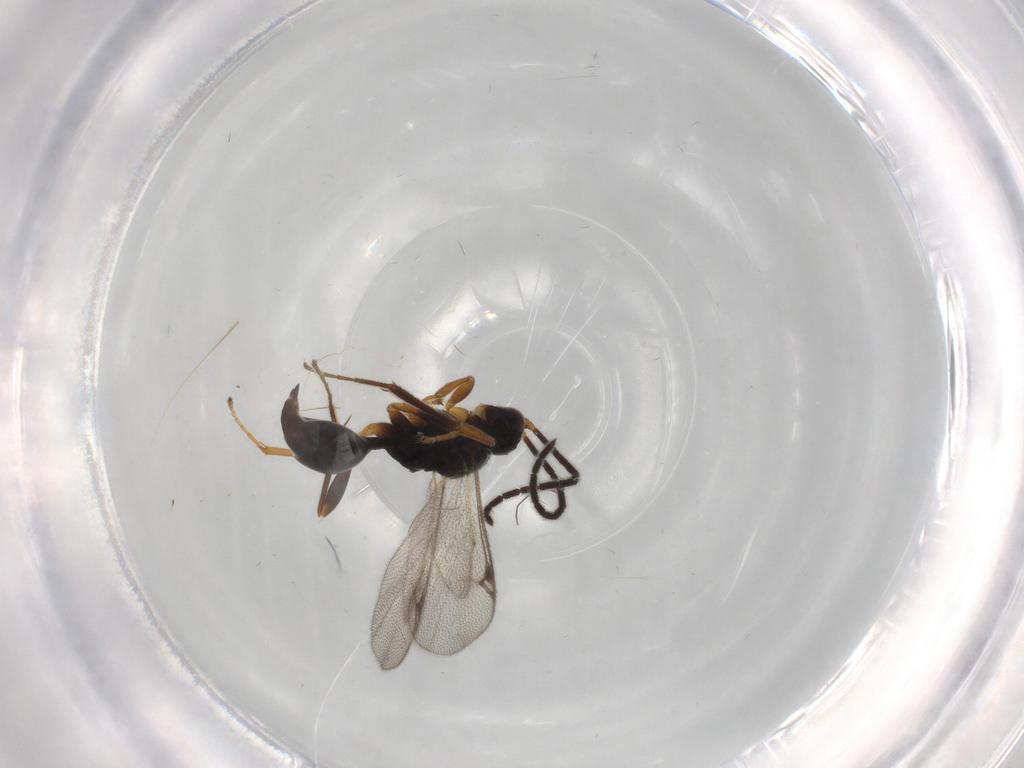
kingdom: Animalia
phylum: Arthropoda
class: Insecta
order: Hymenoptera
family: Proctotrupidae
